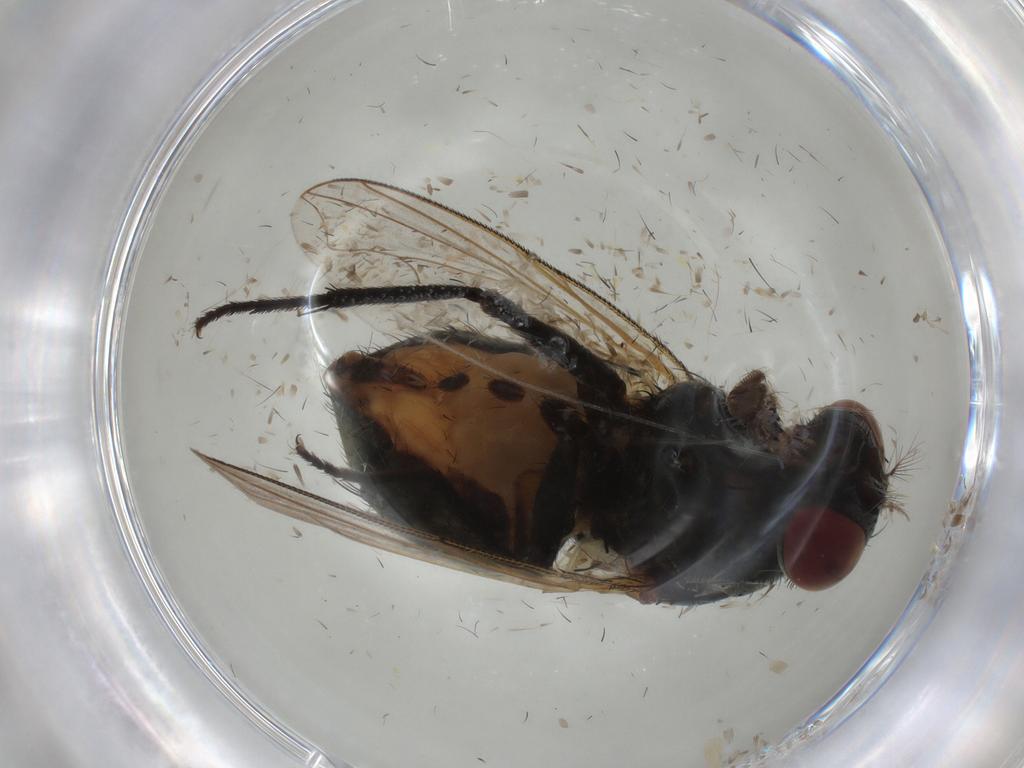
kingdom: Animalia
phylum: Arthropoda
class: Insecta
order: Diptera
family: Muscidae
